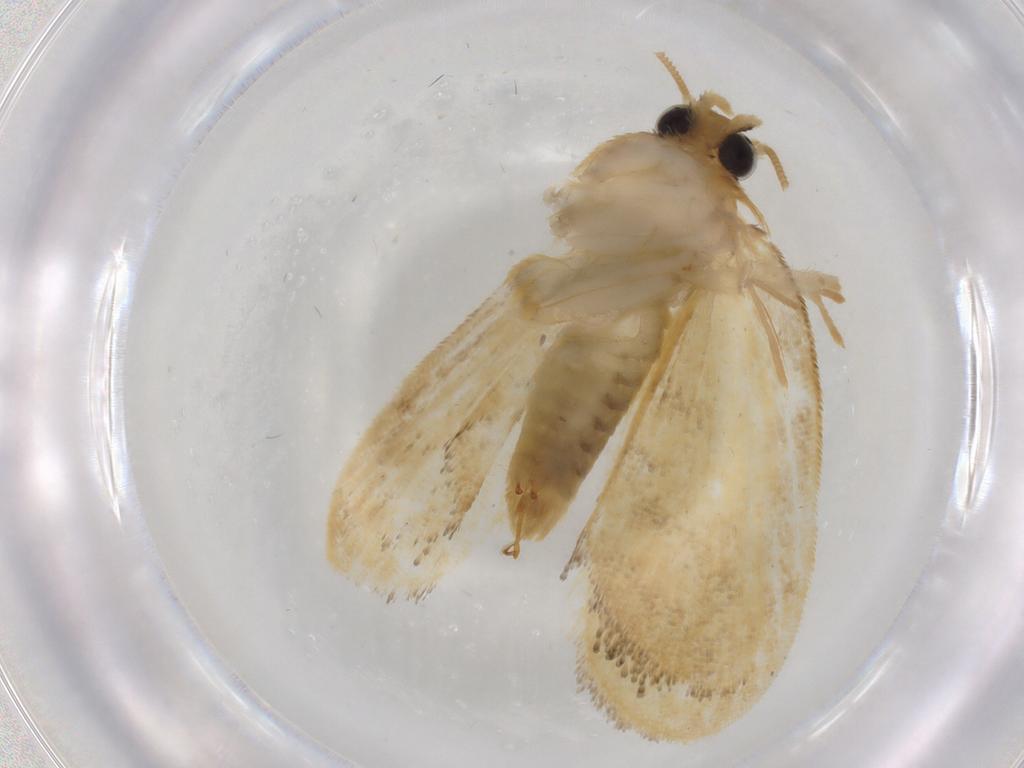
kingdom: Animalia
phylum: Arthropoda
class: Insecta
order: Lepidoptera
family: Psychidae
